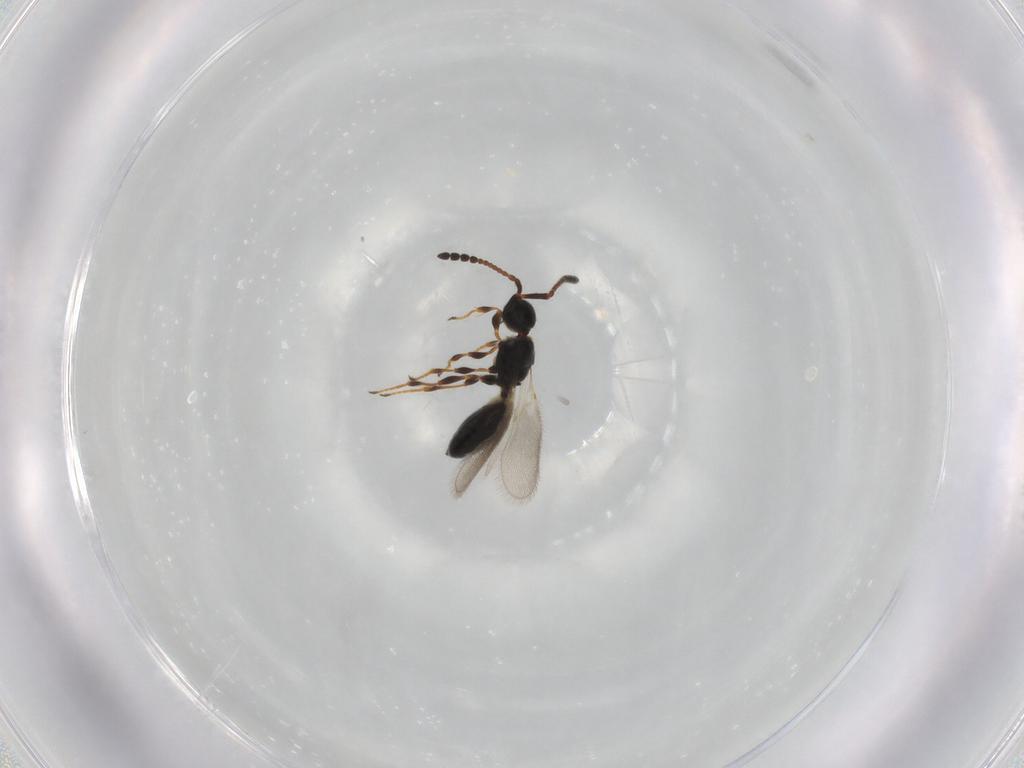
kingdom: Animalia
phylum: Arthropoda
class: Insecta
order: Hymenoptera
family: Diapriidae
